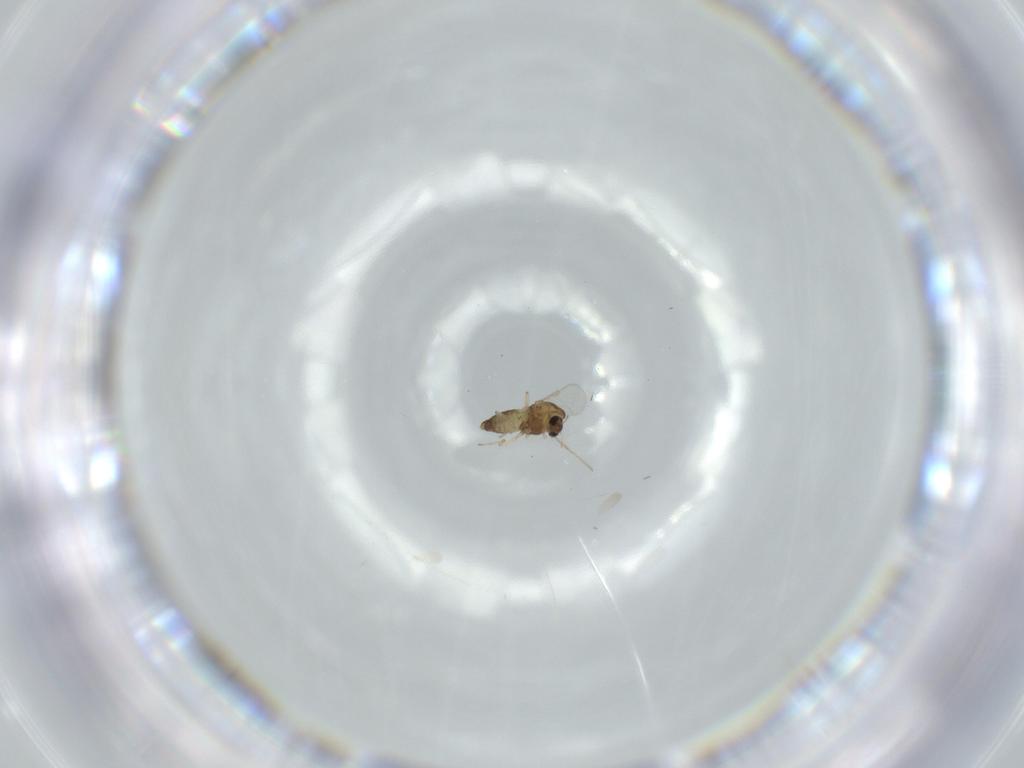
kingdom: Animalia
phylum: Arthropoda
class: Insecta
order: Diptera
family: Chironomidae
